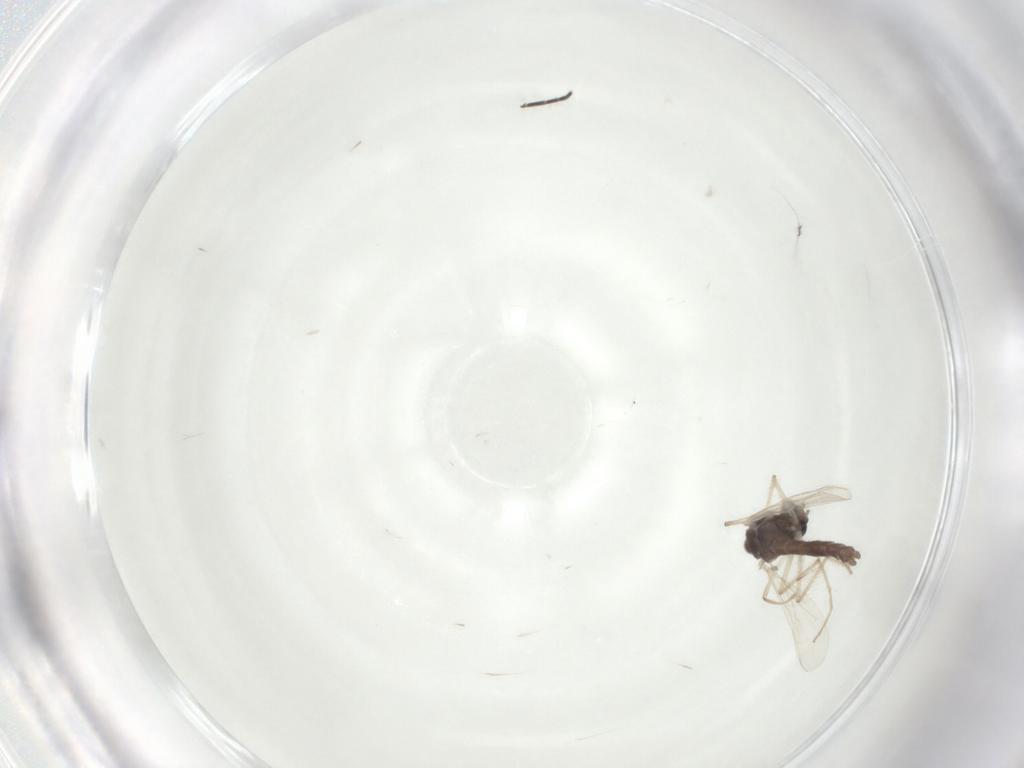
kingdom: Animalia
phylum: Arthropoda
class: Insecta
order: Diptera
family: Chironomidae
